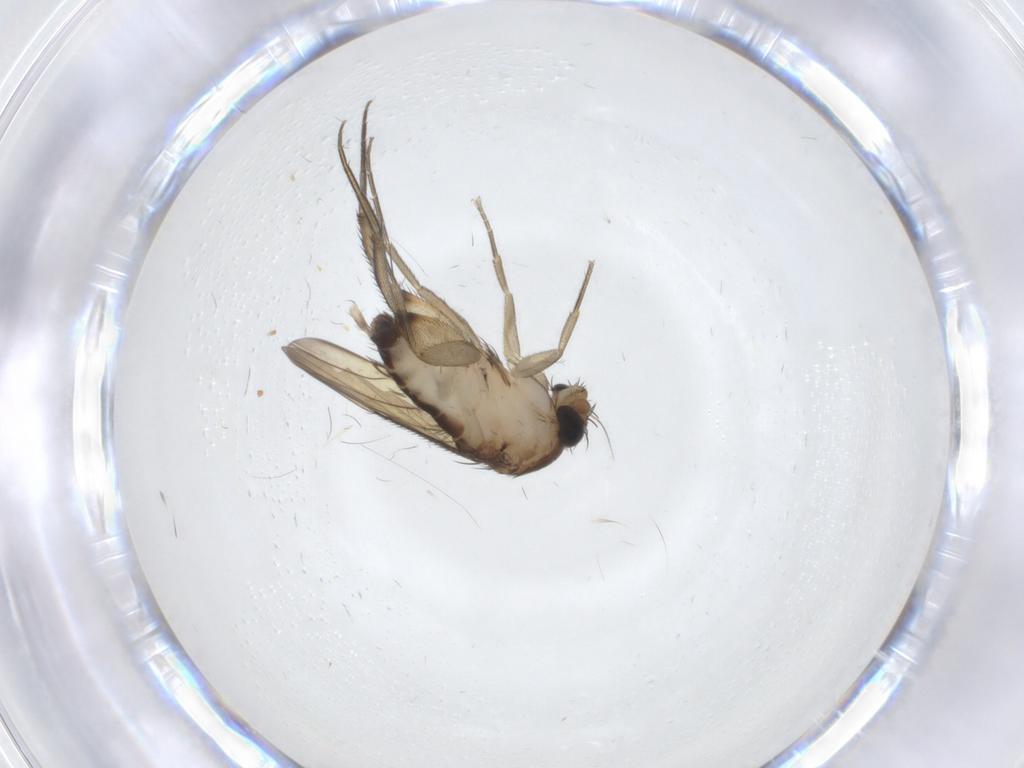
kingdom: Animalia
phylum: Arthropoda
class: Insecta
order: Diptera
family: Phoridae
